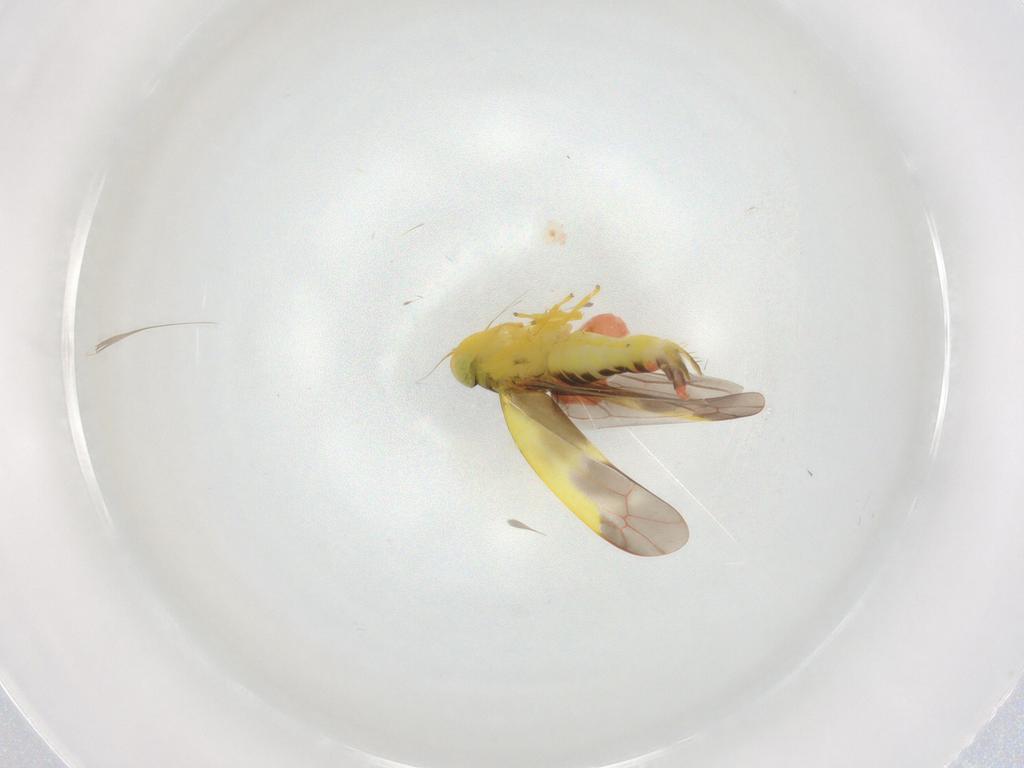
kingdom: Animalia
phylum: Arthropoda
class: Insecta
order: Hemiptera
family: Cicadellidae
